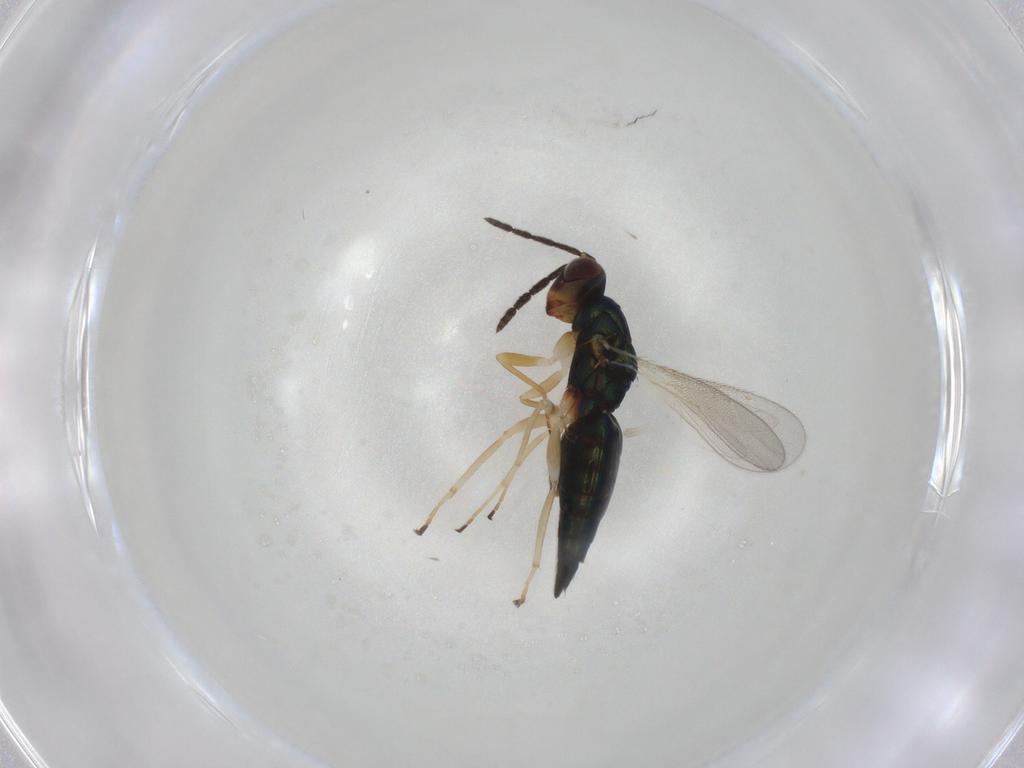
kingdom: Animalia
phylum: Arthropoda
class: Insecta
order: Hymenoptera
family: Eulophidae
